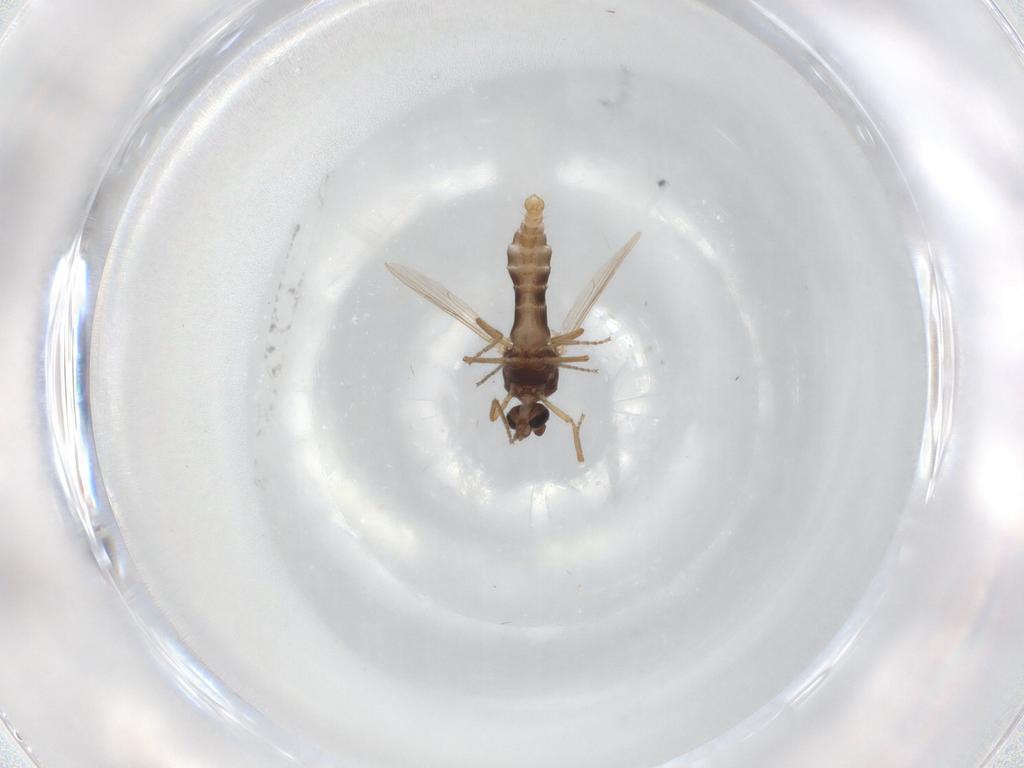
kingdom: Animalia
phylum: Arthropoda
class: Insecta
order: Diptera
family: Ceratopogonidae
